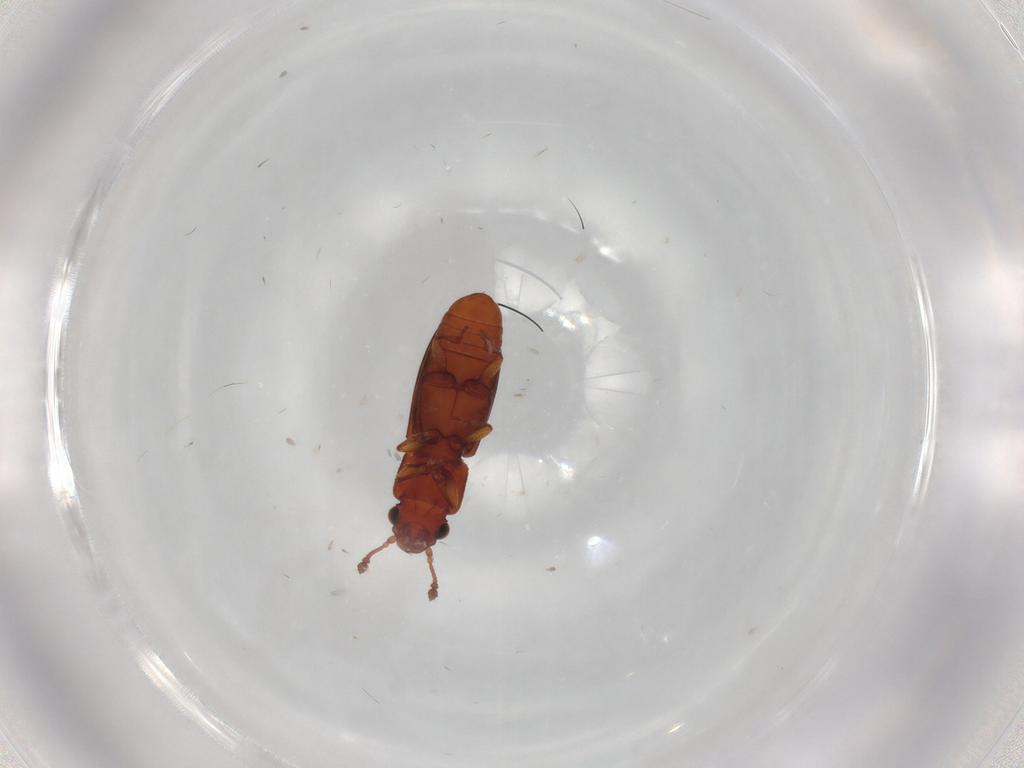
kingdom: Animalia
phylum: Arthropoda
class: Insecta
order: Coleoptera
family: Monotomidae
